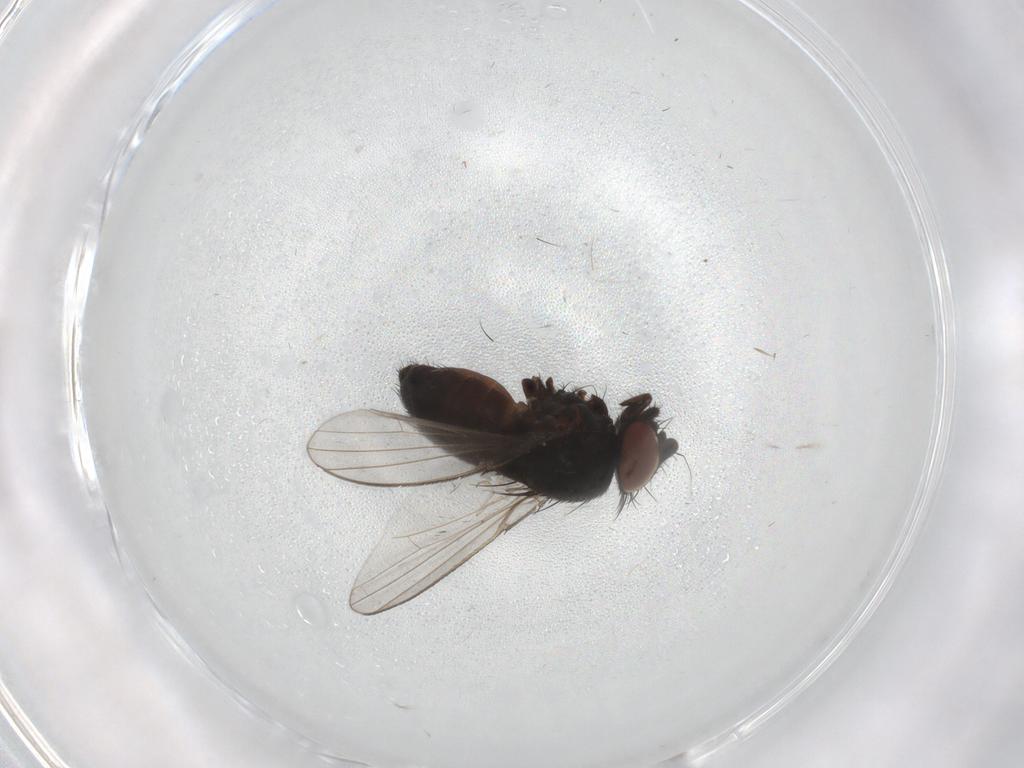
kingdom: Animalia
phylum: Arthropoda
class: Insecta
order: Diptera
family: Milichiidae
